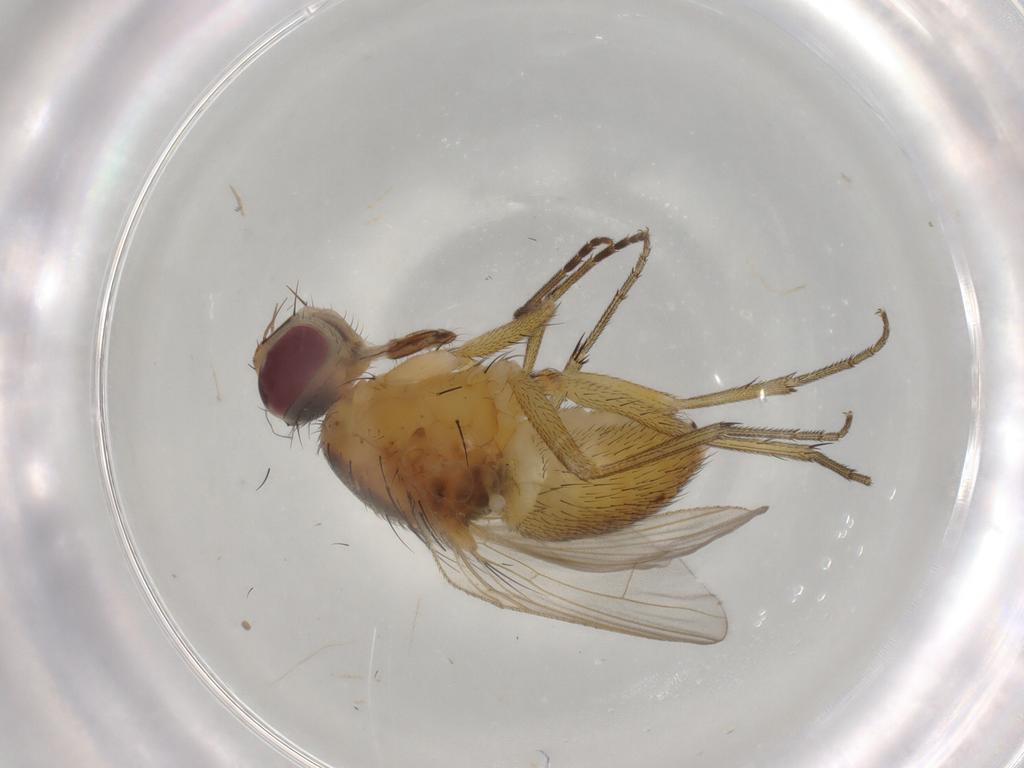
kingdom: Animalia
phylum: Arthropoda
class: Insecta
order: Diptera
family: Muscidae
